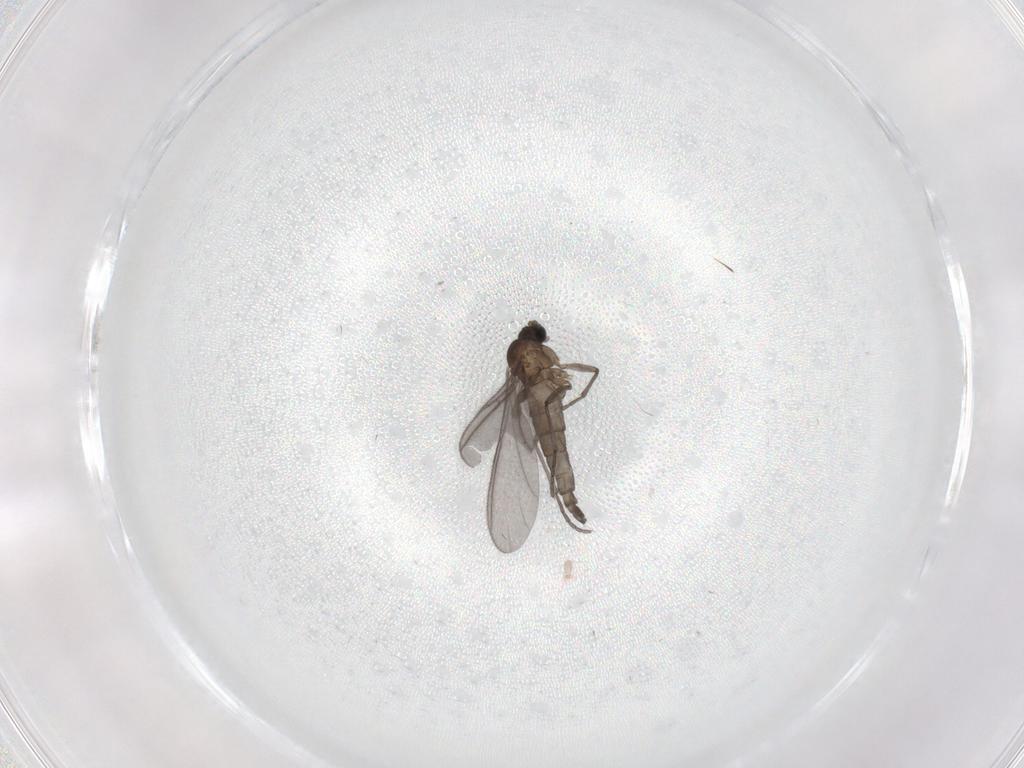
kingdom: Animalia
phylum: Arthropoda
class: Insecta
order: Diptera
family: Sciaridae
